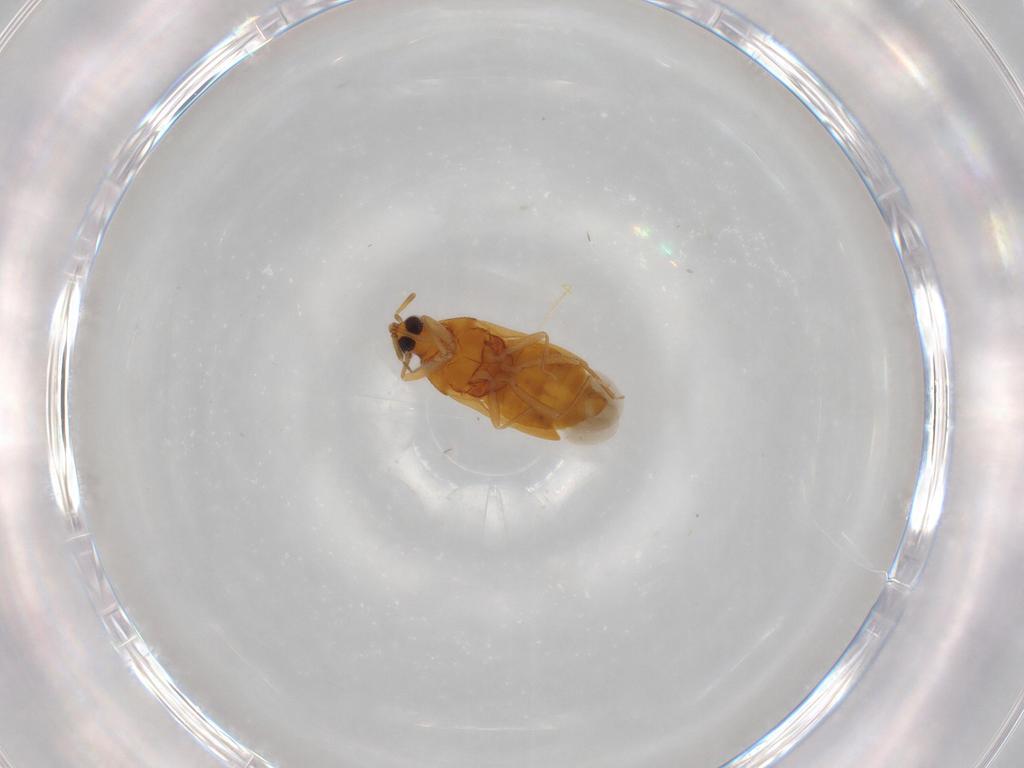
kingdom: Animalia
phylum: Arthropoda
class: Insecta
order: Hemiptera
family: Anthocoridae
